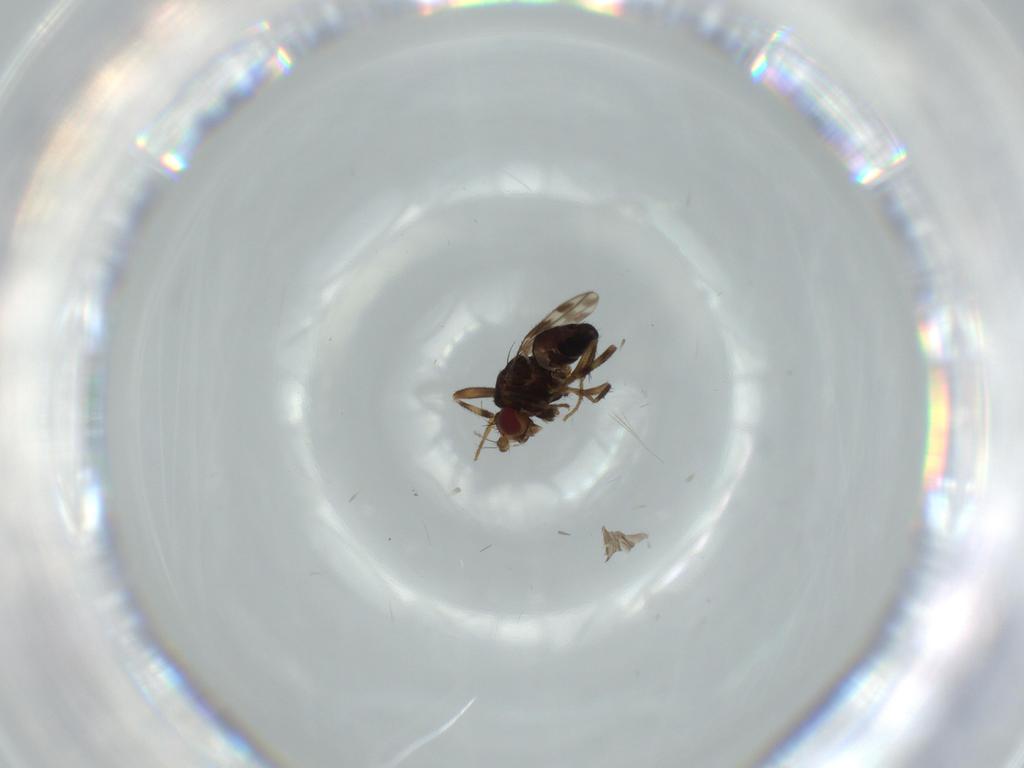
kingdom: Animalia
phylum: Arthropoda
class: Insecta
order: Diptera
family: Sphaeroceridae
